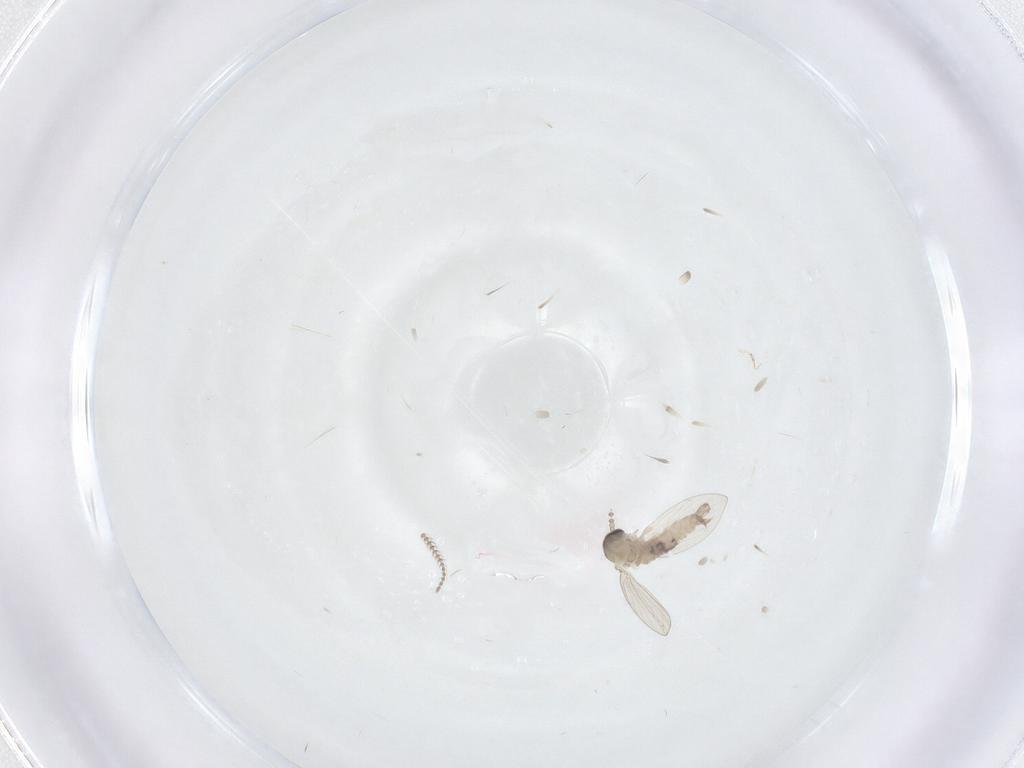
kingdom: Animalia
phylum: Arthropoda
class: Insecta
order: Diptera
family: Psychodidae
